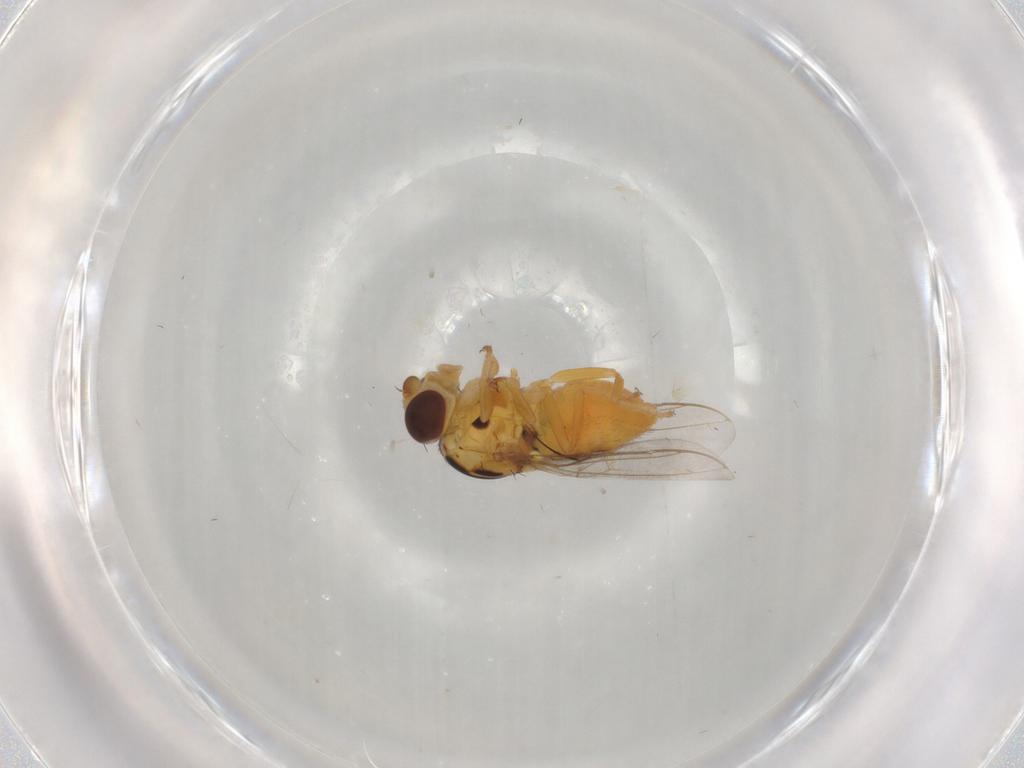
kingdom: Animalia
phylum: Arthropoda
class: Insecta
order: Diptera
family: Chloropidae
